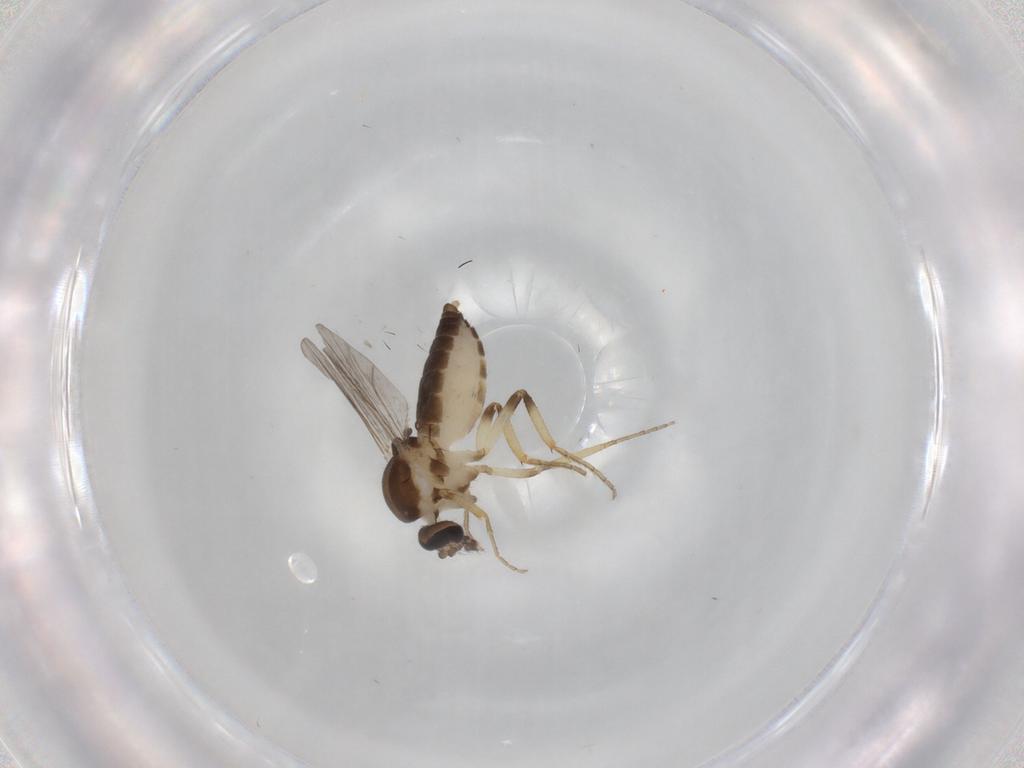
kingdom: Animalia
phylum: Arthropoda
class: Insecta
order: Diptera
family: Ceratopogonidae
